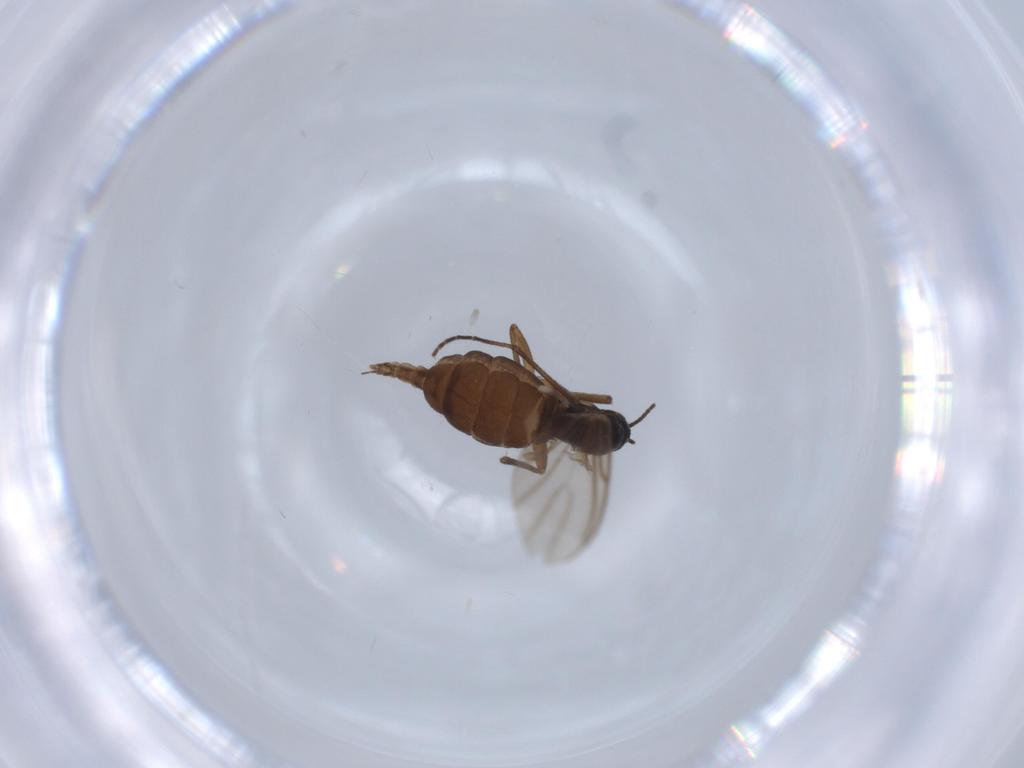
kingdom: Animalia
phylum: Arthropoda
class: Insecta
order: Diptera
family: Sciaridae
